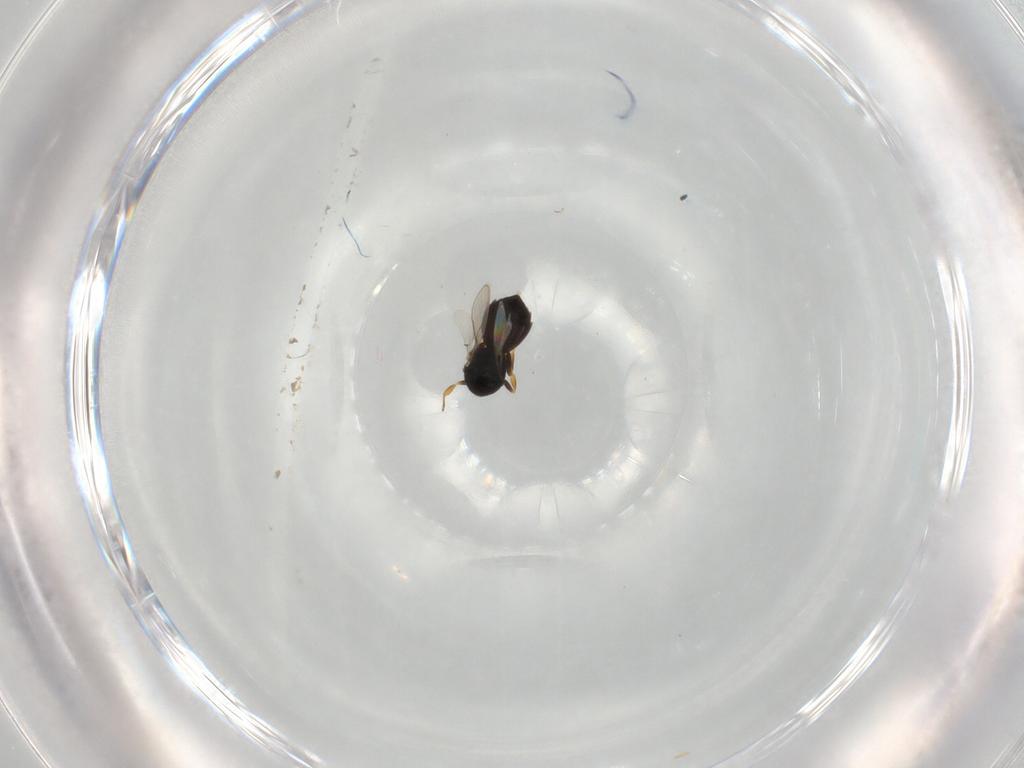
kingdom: Animalia
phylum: Arthropoda
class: Insecta
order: Hymenoptera
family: Scelionidae
